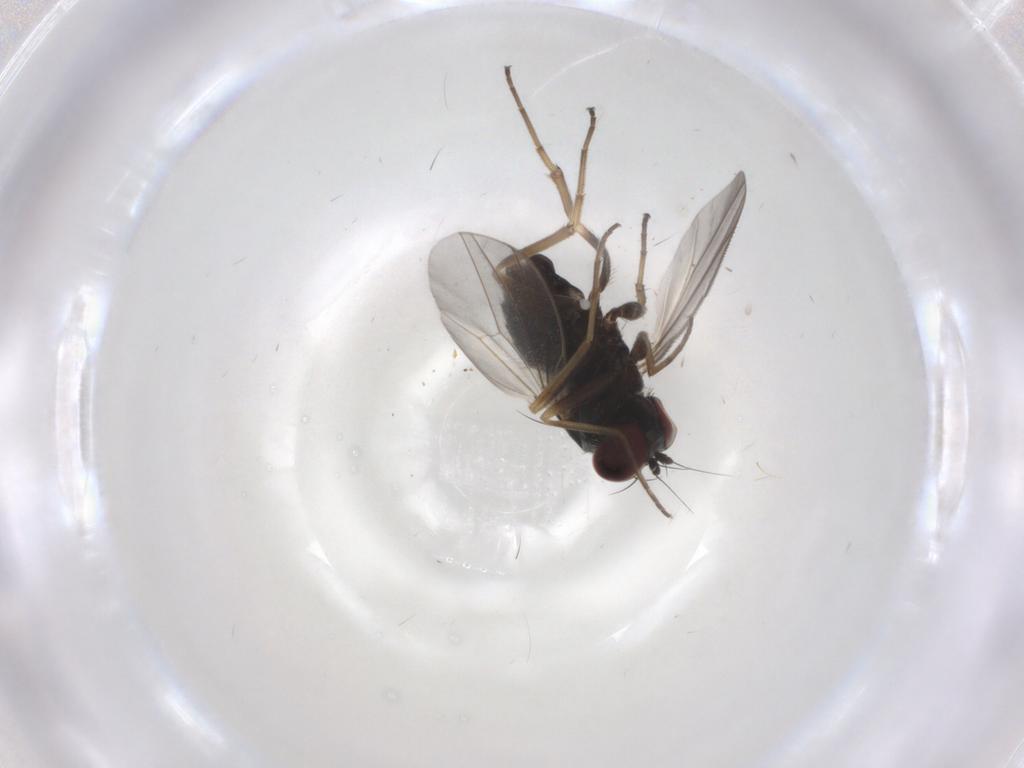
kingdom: Animalia
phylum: Arthropoda
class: Insecta
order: Diptera
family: Dolichopodidae
